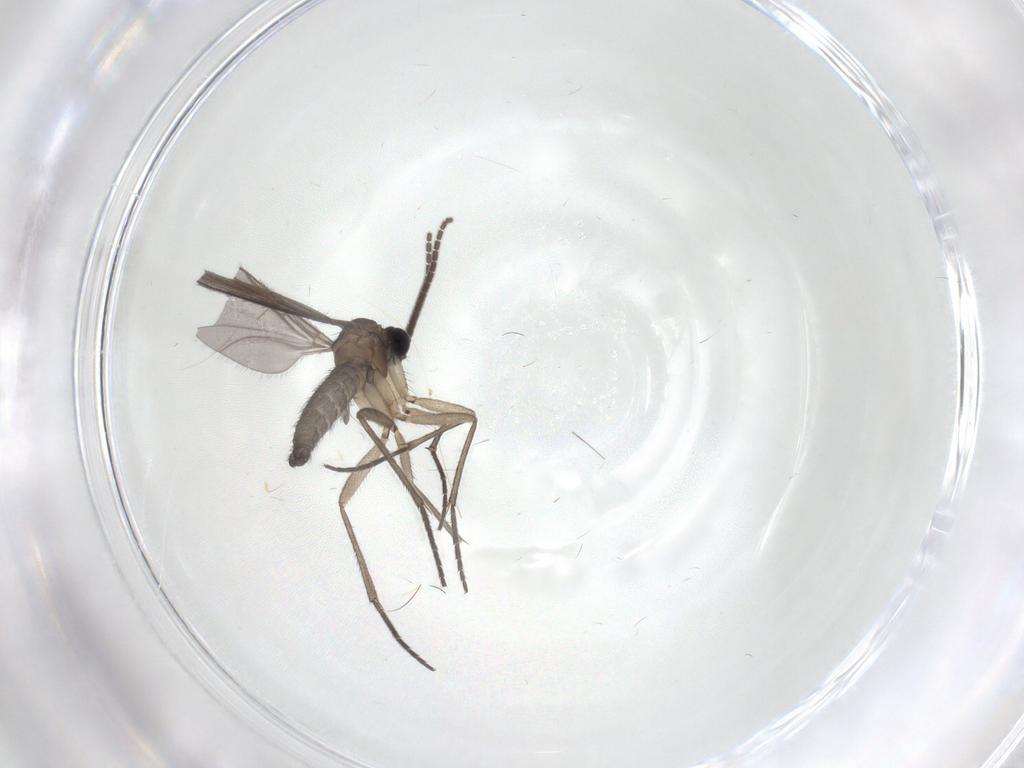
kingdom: Animalia
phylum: Arthropoda
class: Insecta
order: Diptera
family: Sciaridae
